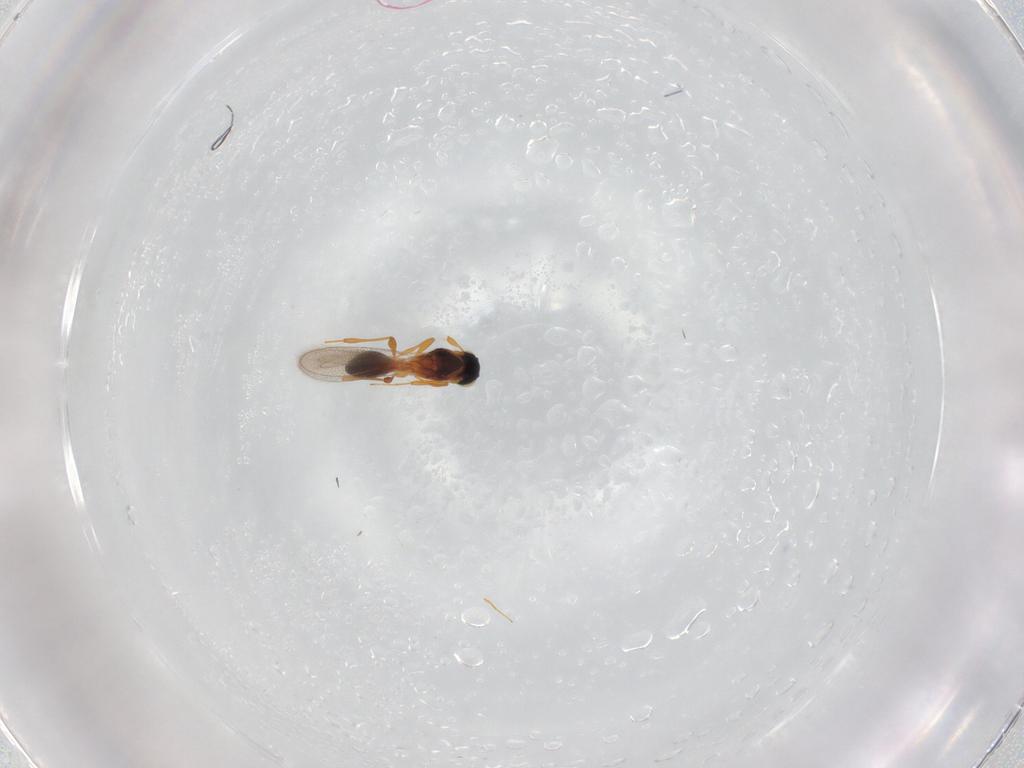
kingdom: Animalia
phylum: Arthropoda
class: Insecta
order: Hymenoptera
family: Platygastridae
